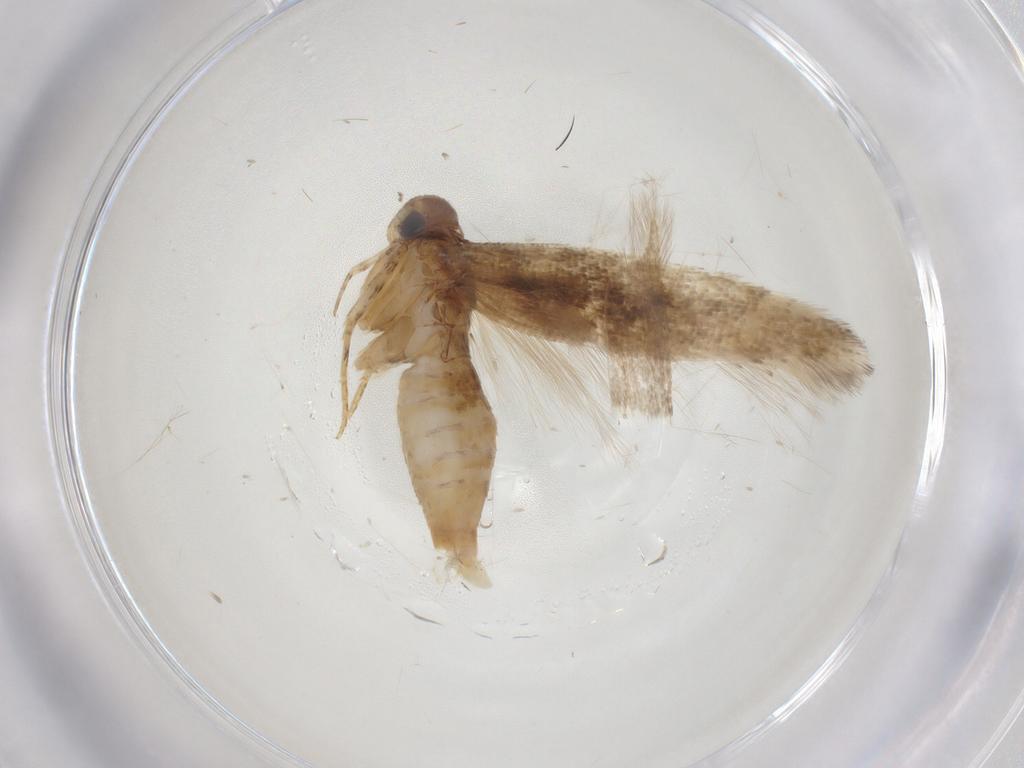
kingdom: Animalia
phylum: Arthropoda
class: Insecta
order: Lepidoptera
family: Gelechiidae
